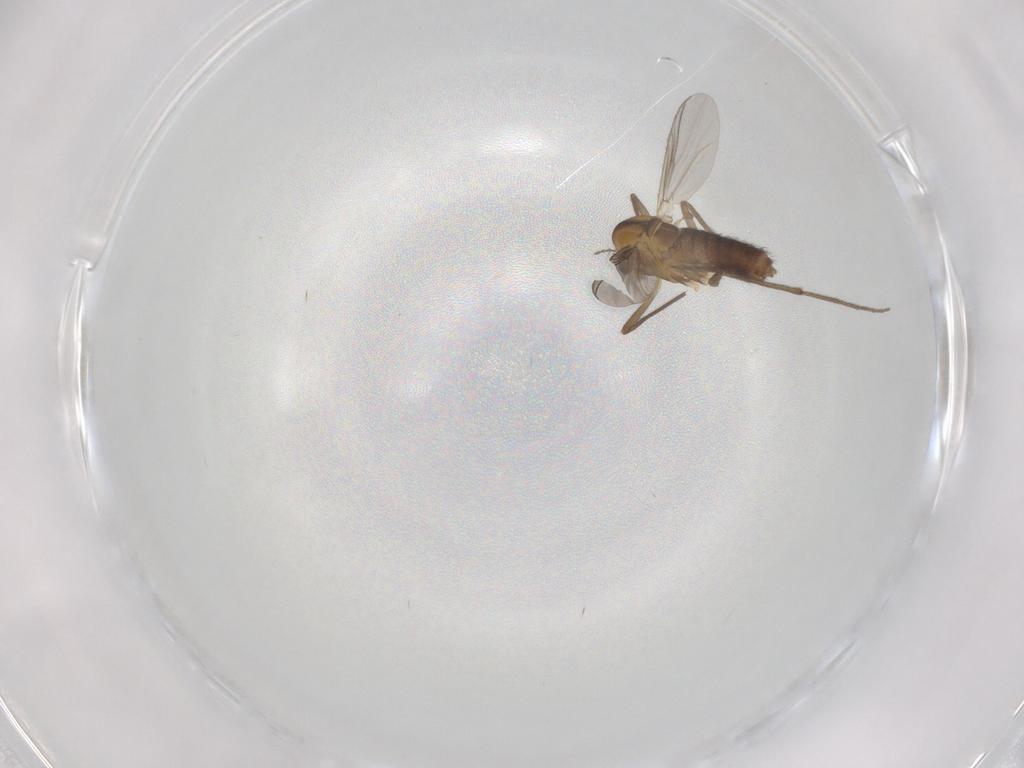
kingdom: Animalia
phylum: Arthropoda
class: Insecta
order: Diptera
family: Chironomidae
